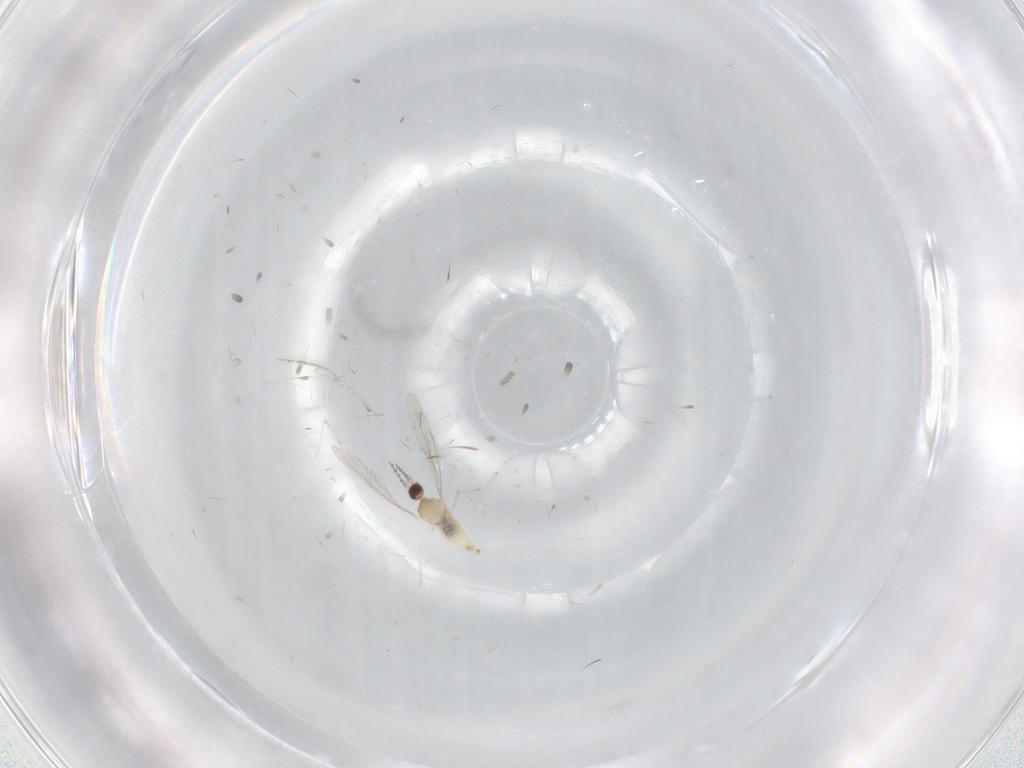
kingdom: Animalia
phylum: Arthropoda
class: Insecta
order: Diptera
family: Cecidomyiidae
